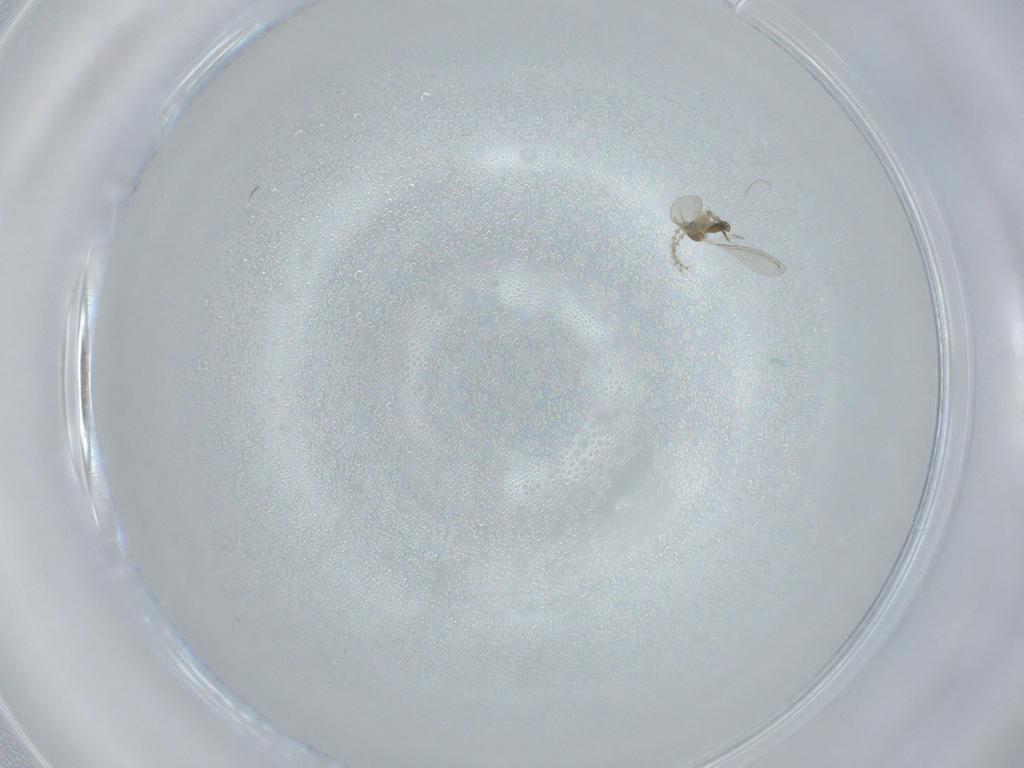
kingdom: Animalia
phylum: Arthropoda
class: Insecta
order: Diptera
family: Cecidomyiidae
